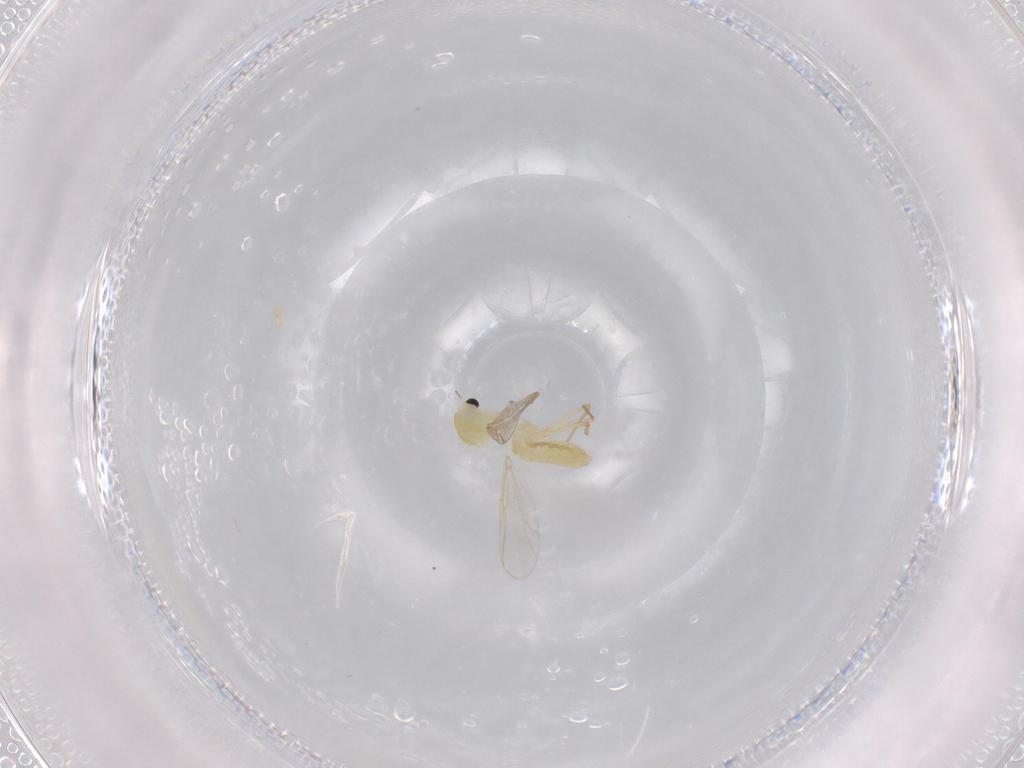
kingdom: Animalia
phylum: Arthropoda
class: Insecta
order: Diptera
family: Chironomidae
